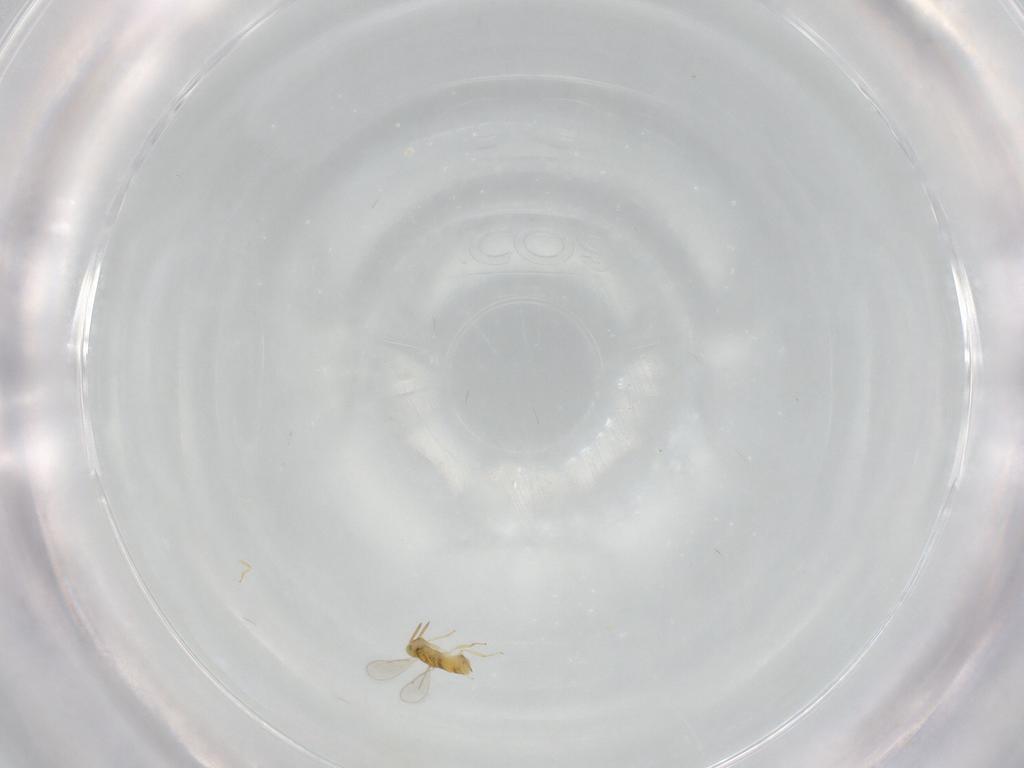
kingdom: Animalia
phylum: Arthropoda
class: Insecta
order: Hymenoptera
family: Aphelinidae
